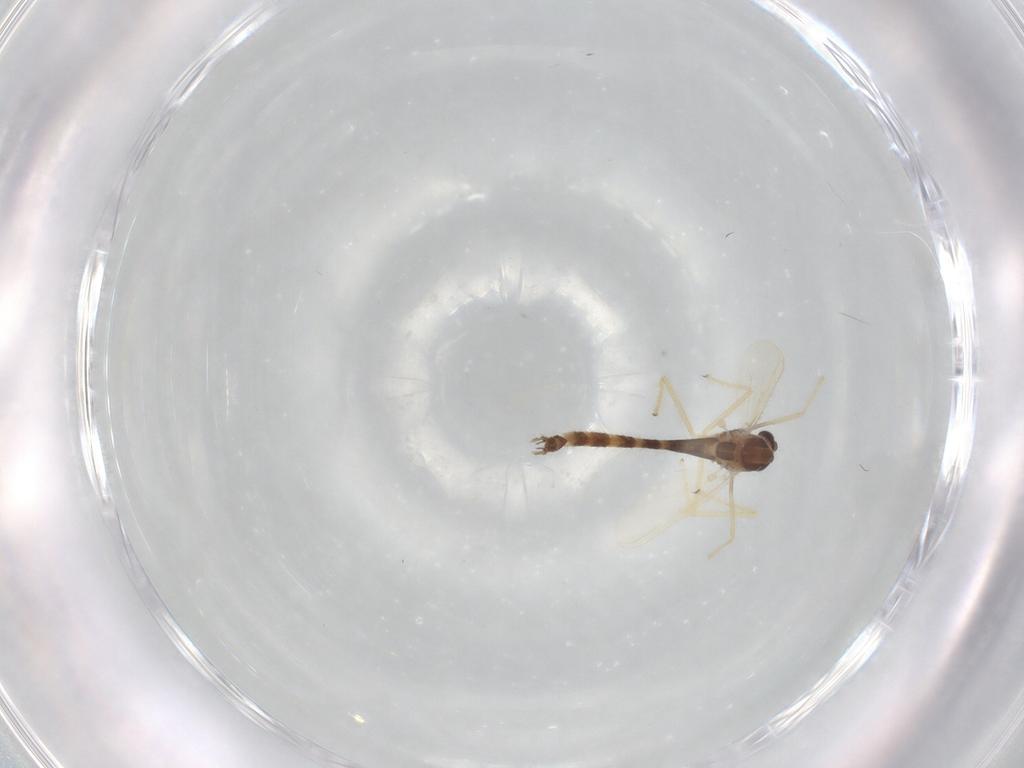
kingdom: Animalia
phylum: Arthropoda
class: Insecta
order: Diptera
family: Chironomidae
